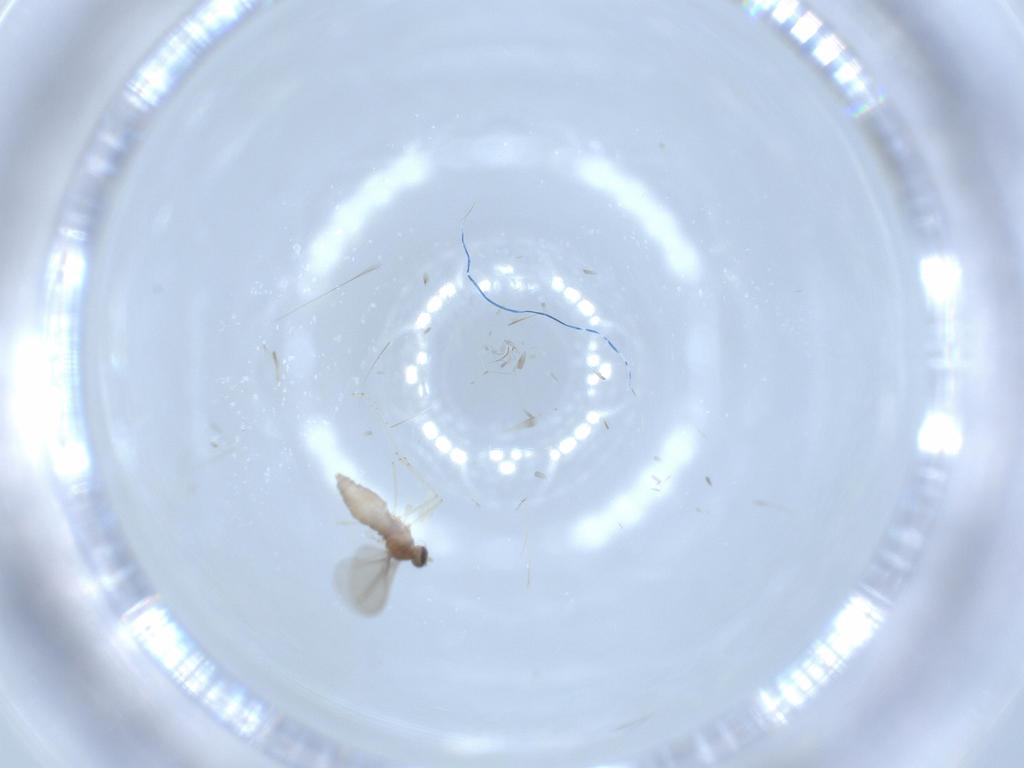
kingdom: Animalia
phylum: Arthropoda
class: Insecta
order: Diptera
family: Cecidomyiidae
